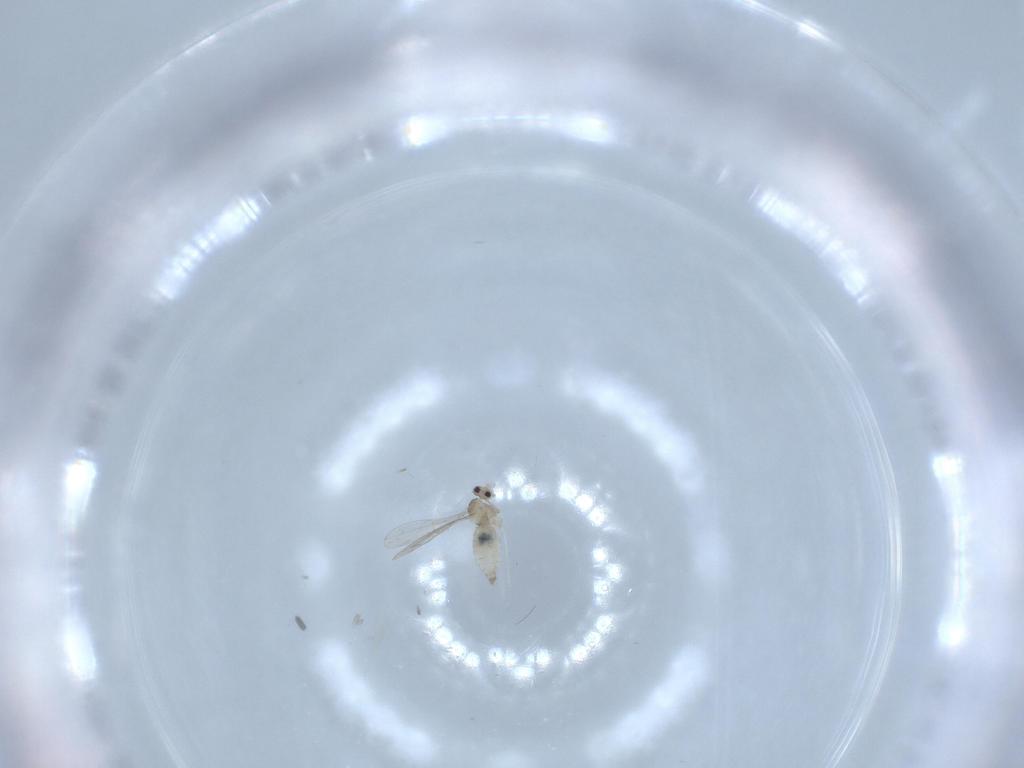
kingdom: Animalia
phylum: Arthropoda
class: Insecta
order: Diptera
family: Cecidomyiidae
